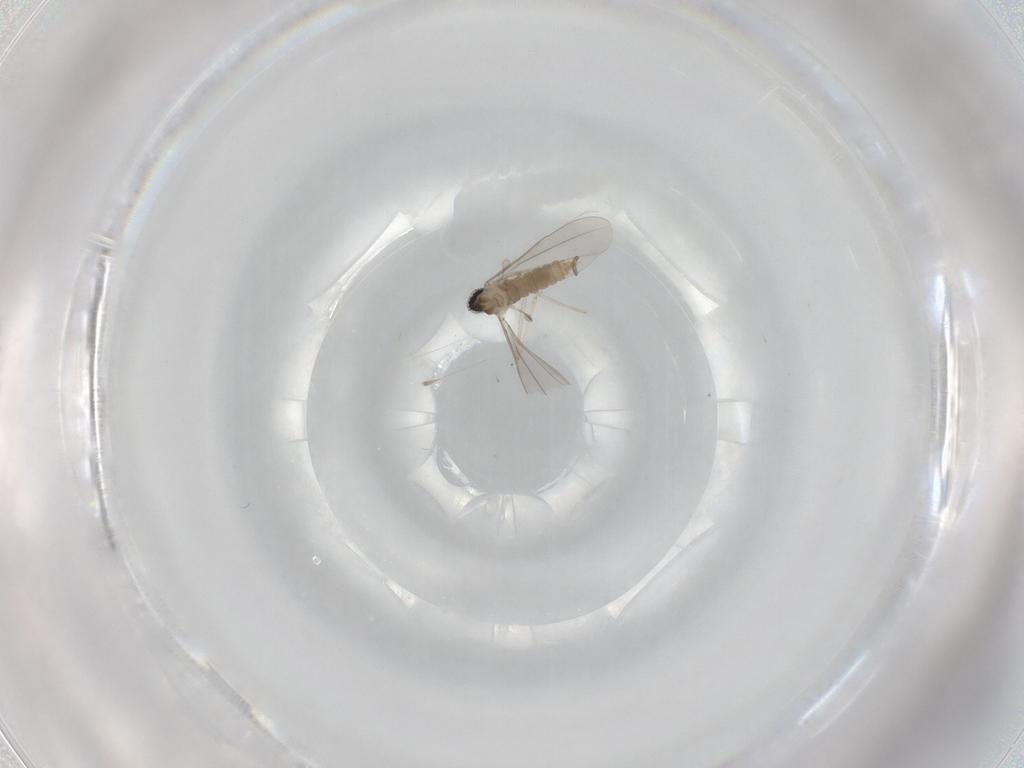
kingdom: Animalia
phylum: Arthropoda
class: Insecta
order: Diptera
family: Cecidomyiidae
